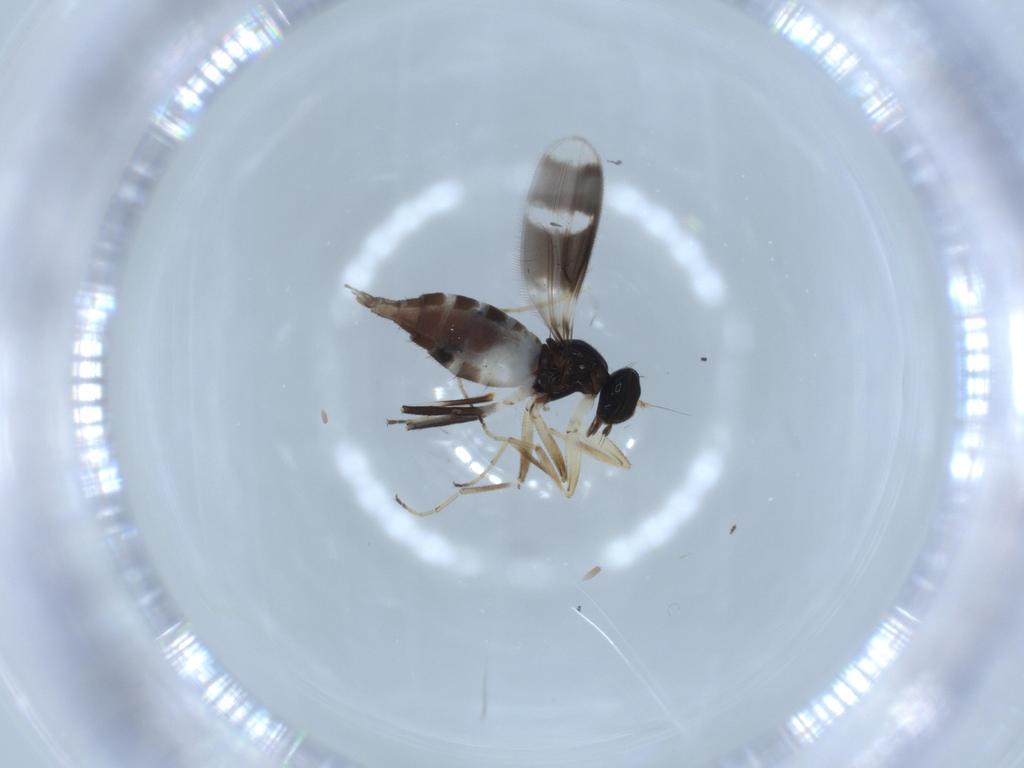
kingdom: Animalia
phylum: Arthropoda
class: Insecta
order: Diptera
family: Hybotidae
